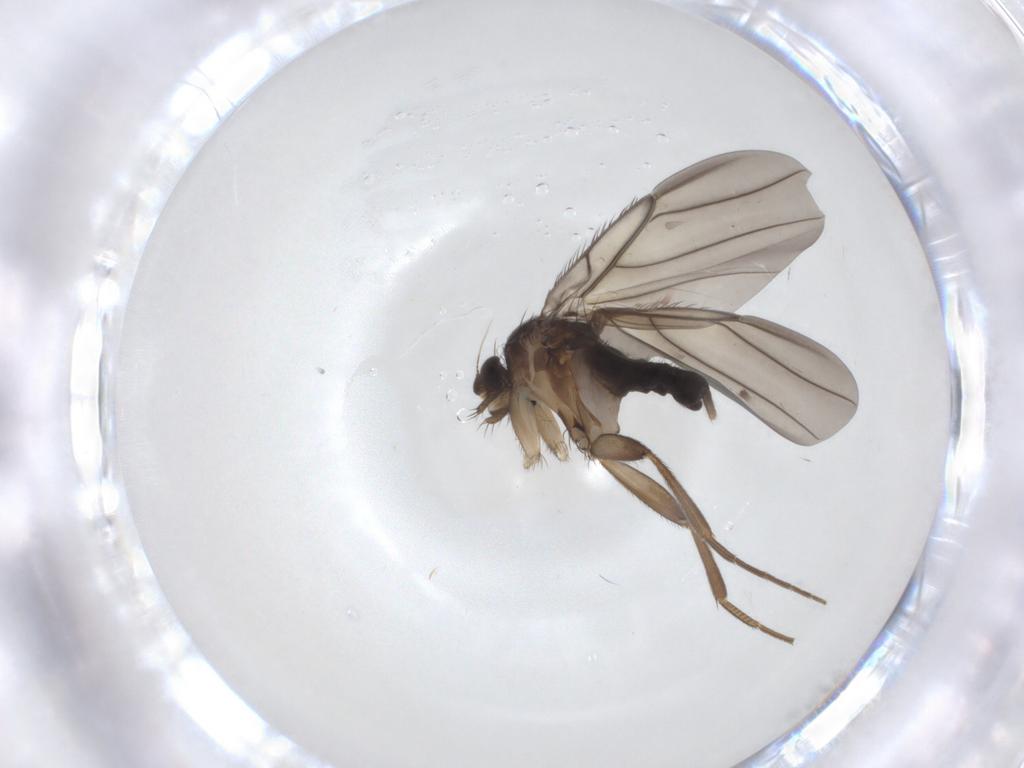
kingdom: Animalia
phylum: Arthropoda
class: Insecta
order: Diptera
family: Phoridae
